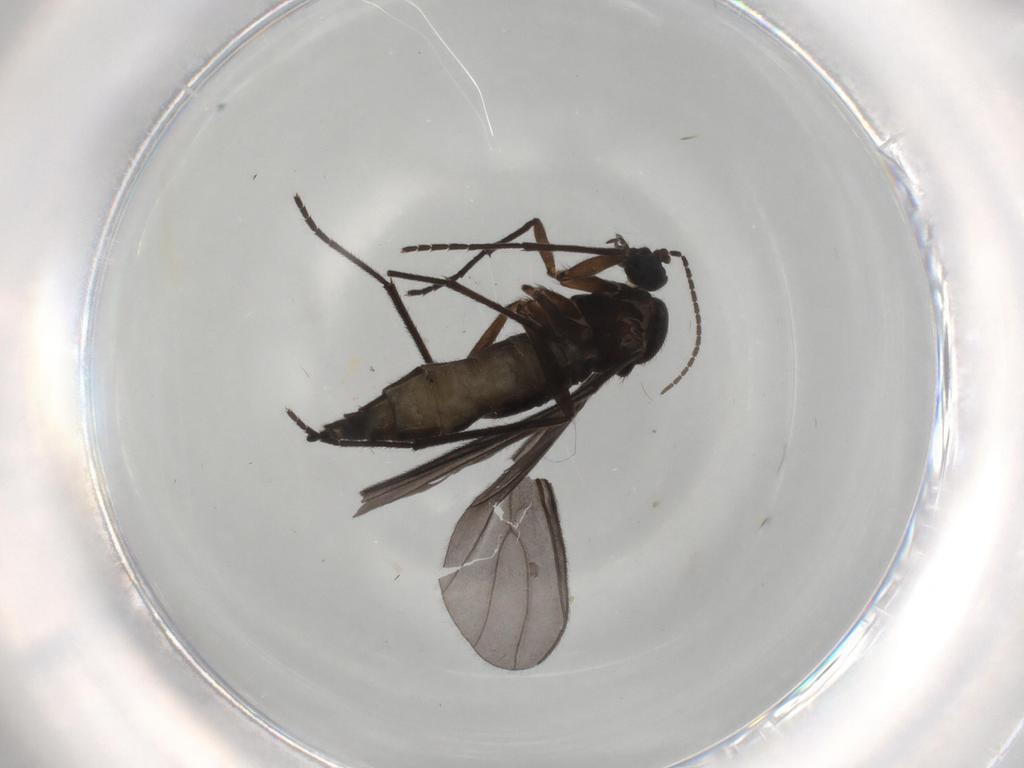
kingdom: Animalia
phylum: Arthropoda
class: Insecta
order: Diptera
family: Sciaridae
